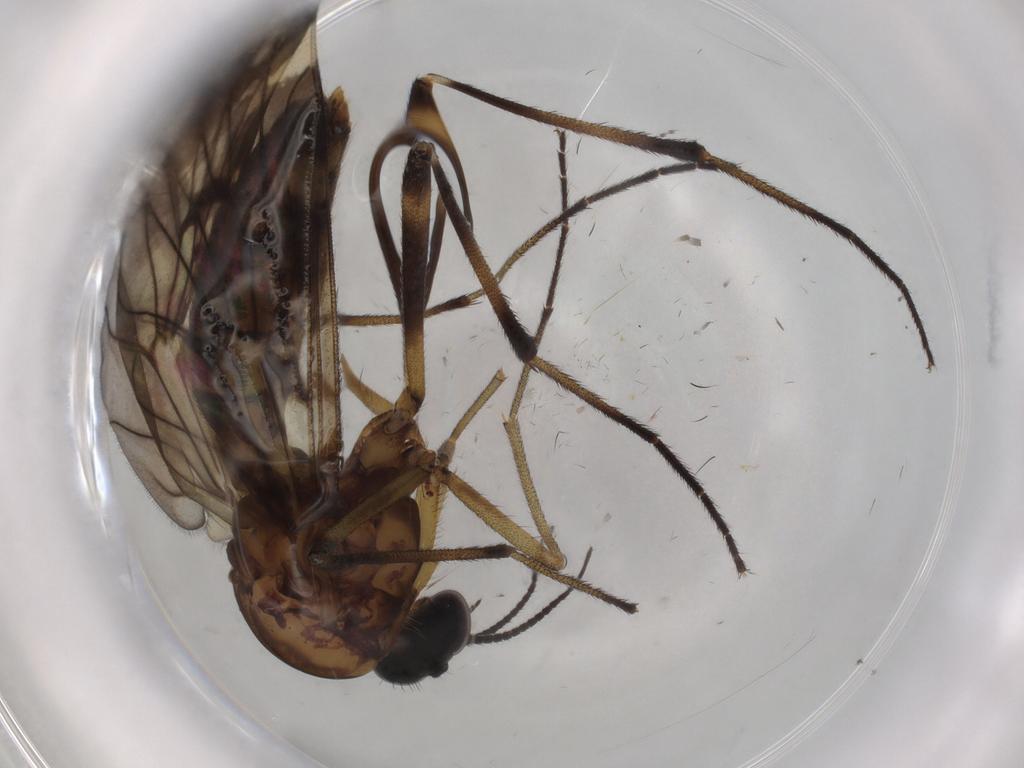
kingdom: Animalia
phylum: Arthropoda
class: Insecta
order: Diptera
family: Anisopodidae
